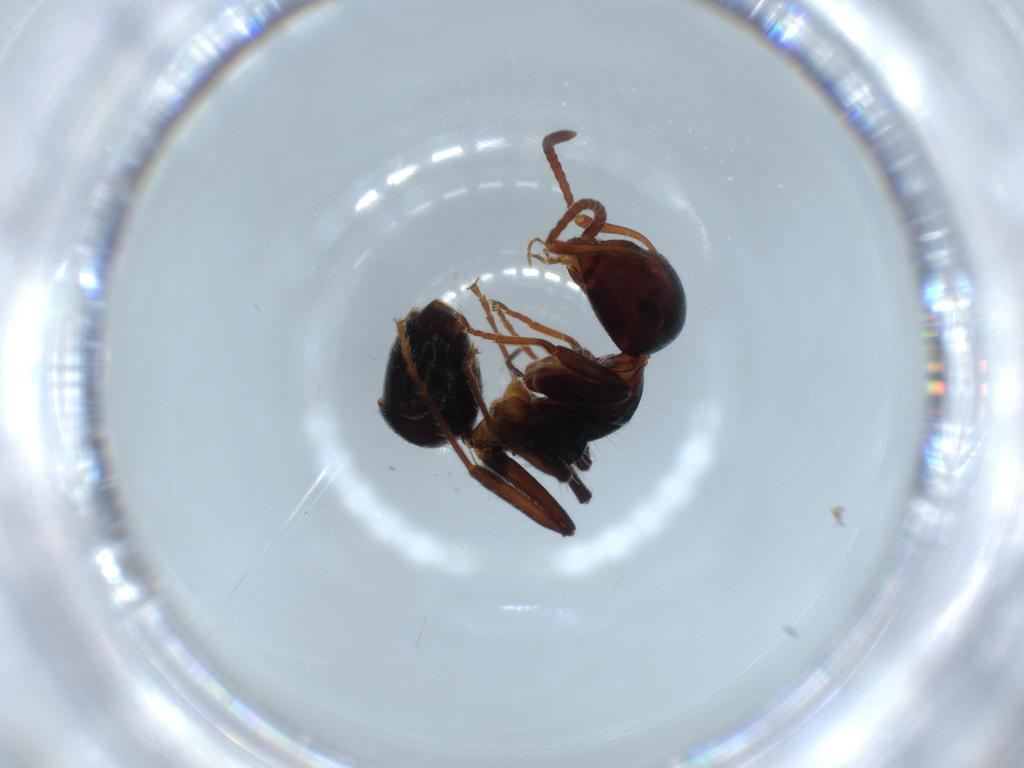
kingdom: Animalia
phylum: Arthropoda
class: Insecta
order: Hymenoptera
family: Formicidae
